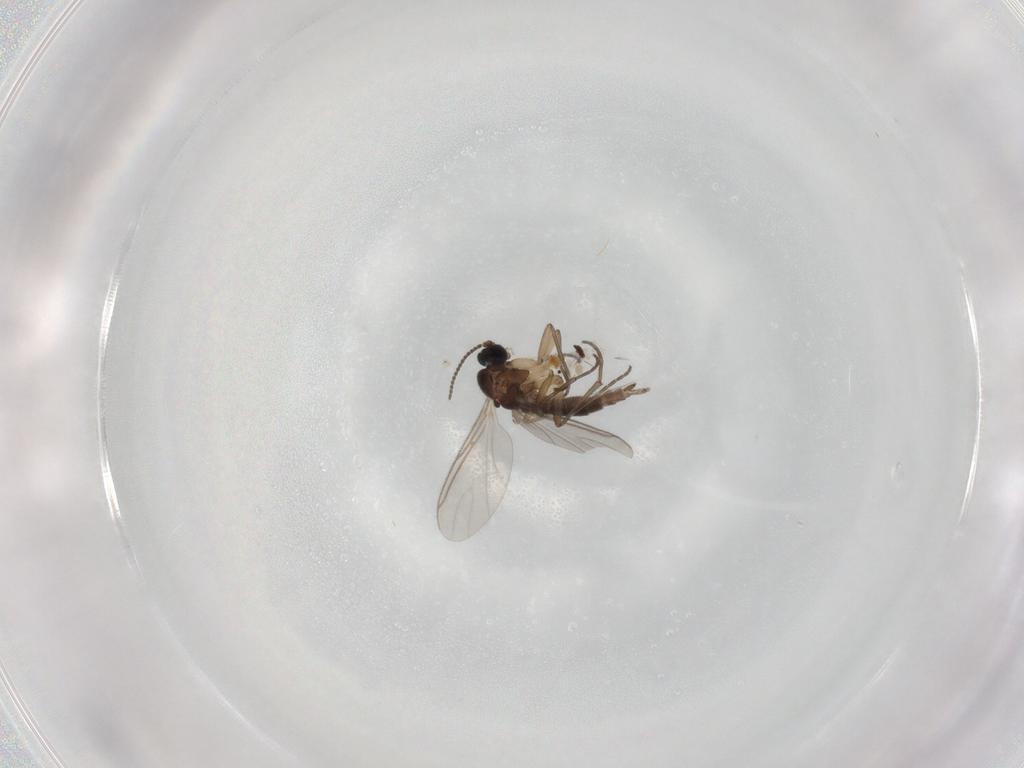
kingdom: Animalia
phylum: Arthropoda
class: Insecta
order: Diptera
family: Sciaridae
